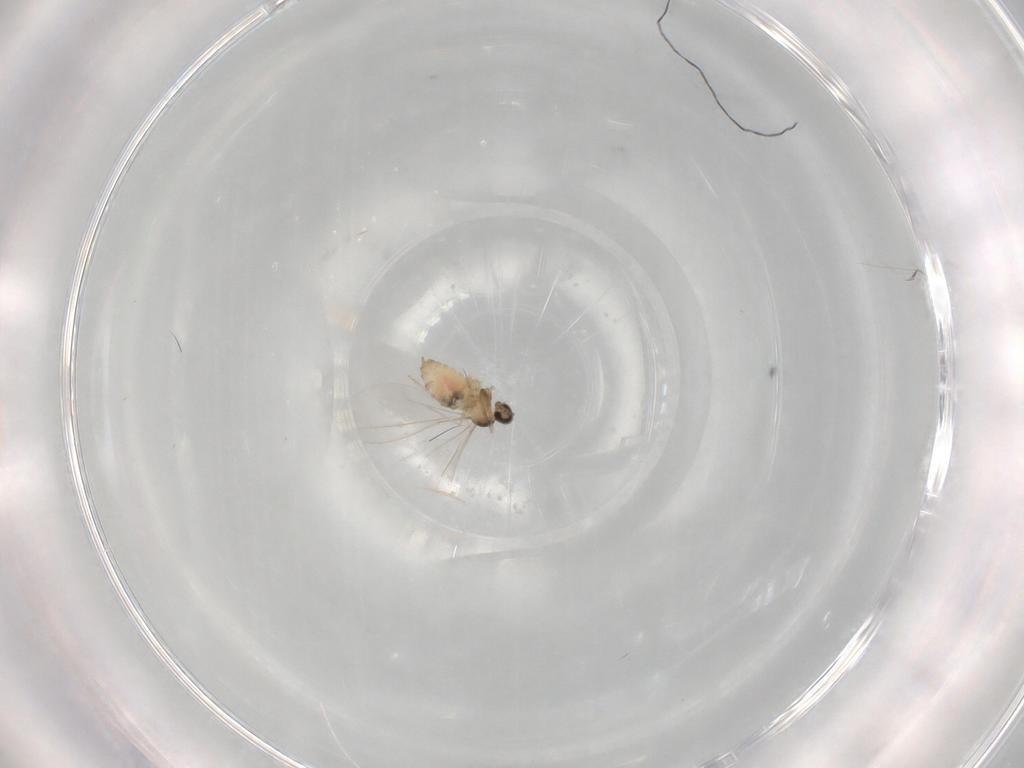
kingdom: Animalia
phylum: Arthropoda
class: Insecta
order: Diptera
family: Cecidomyiidae
